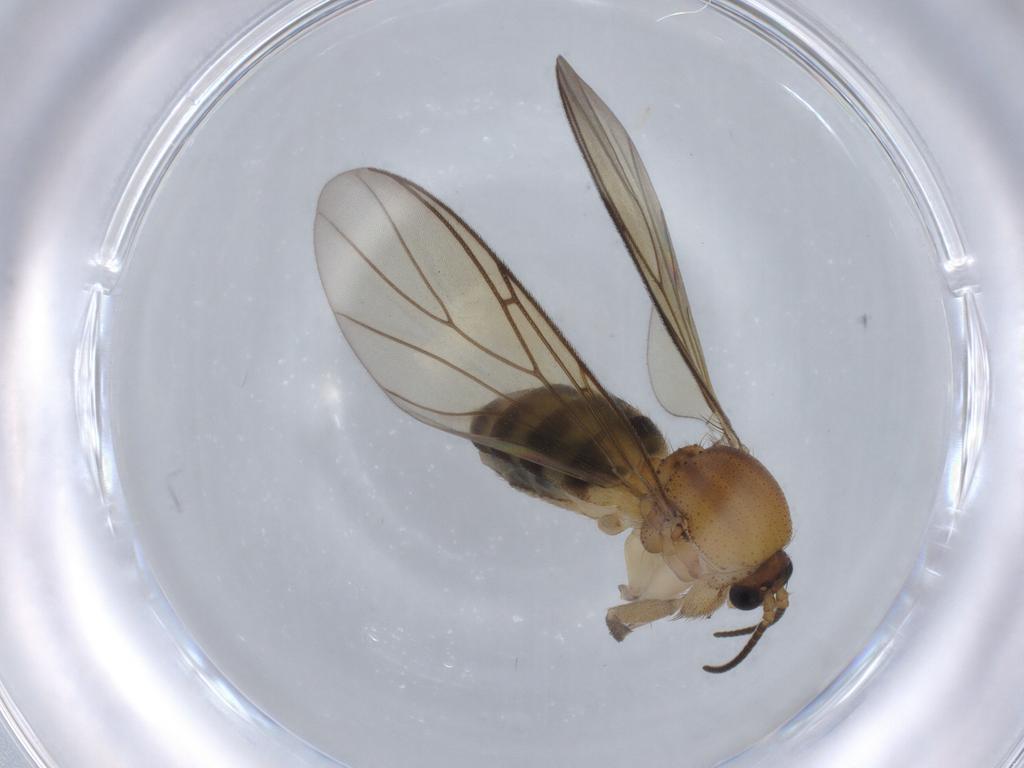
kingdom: Animalia
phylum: Arthropoda
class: Insecta
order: Diptera
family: Mycetophilidae
